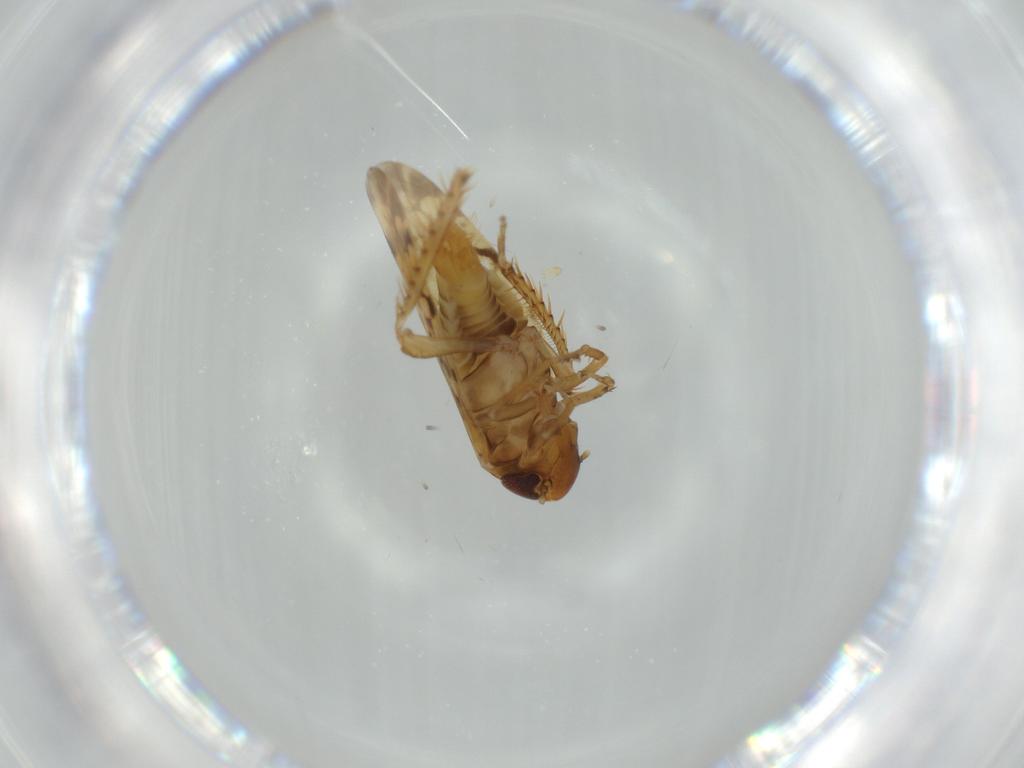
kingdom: Animalia
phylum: Arthropoda
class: Insecta
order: Hemiptera
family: Cicadellidae
